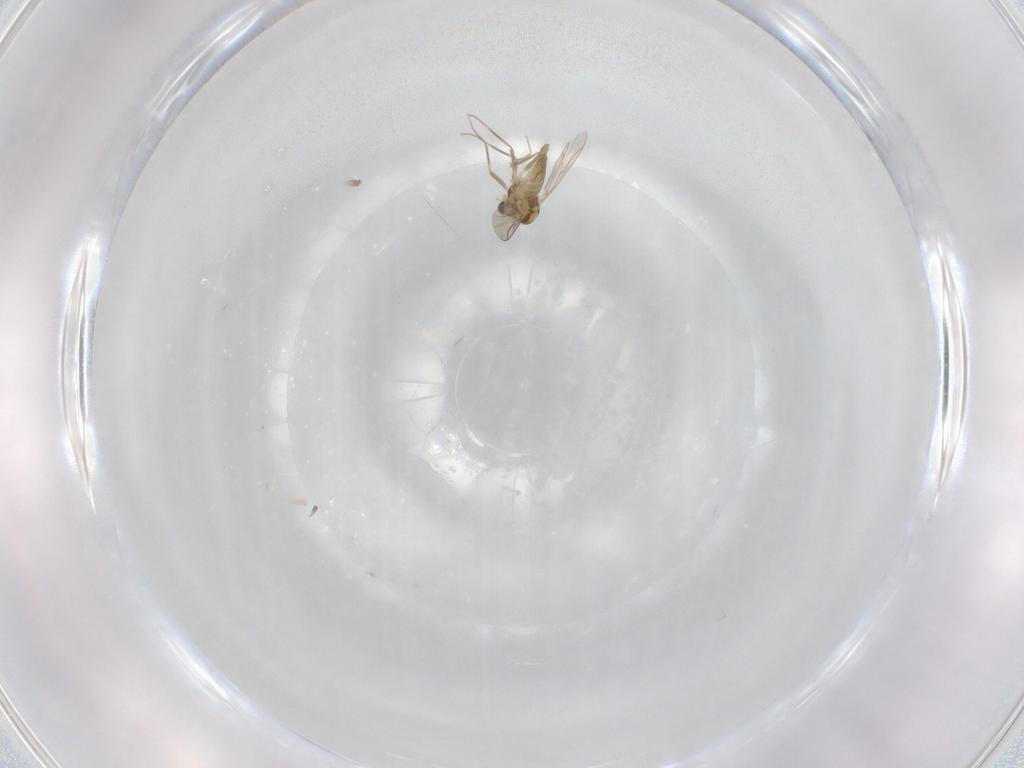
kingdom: Animalia
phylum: Arthropoda
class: Insecta
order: Diptera
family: Chironomidae
